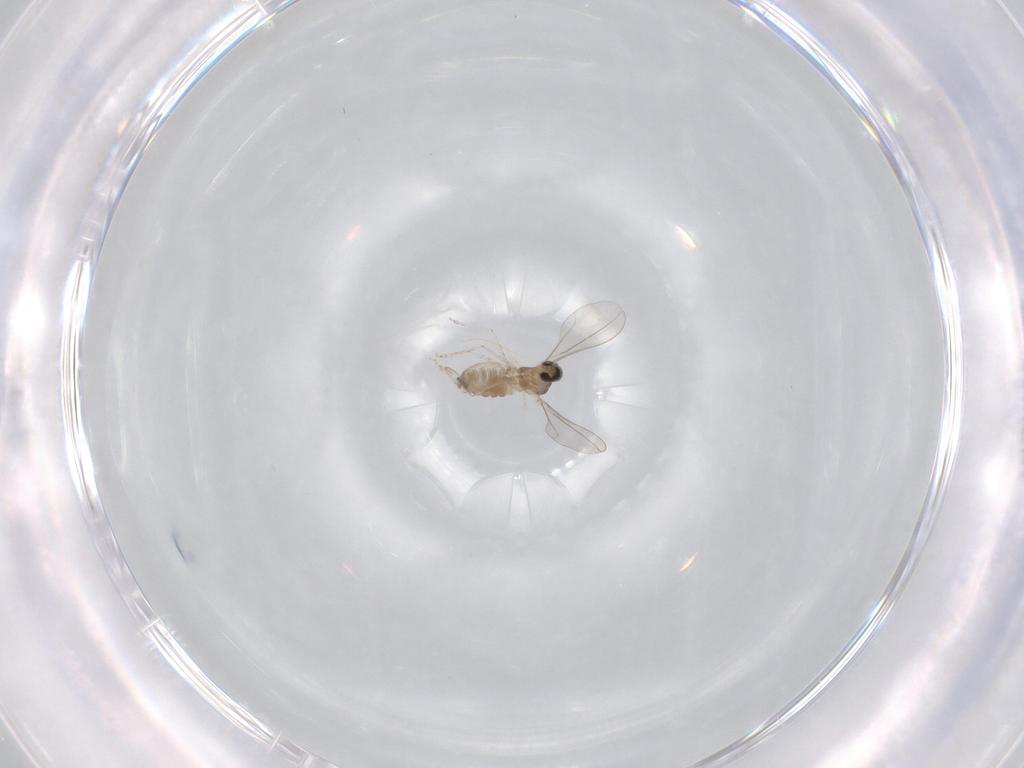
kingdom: Animalia
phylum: Arthropoda
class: Insecta
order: Diptera
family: Cecidomyiidae
